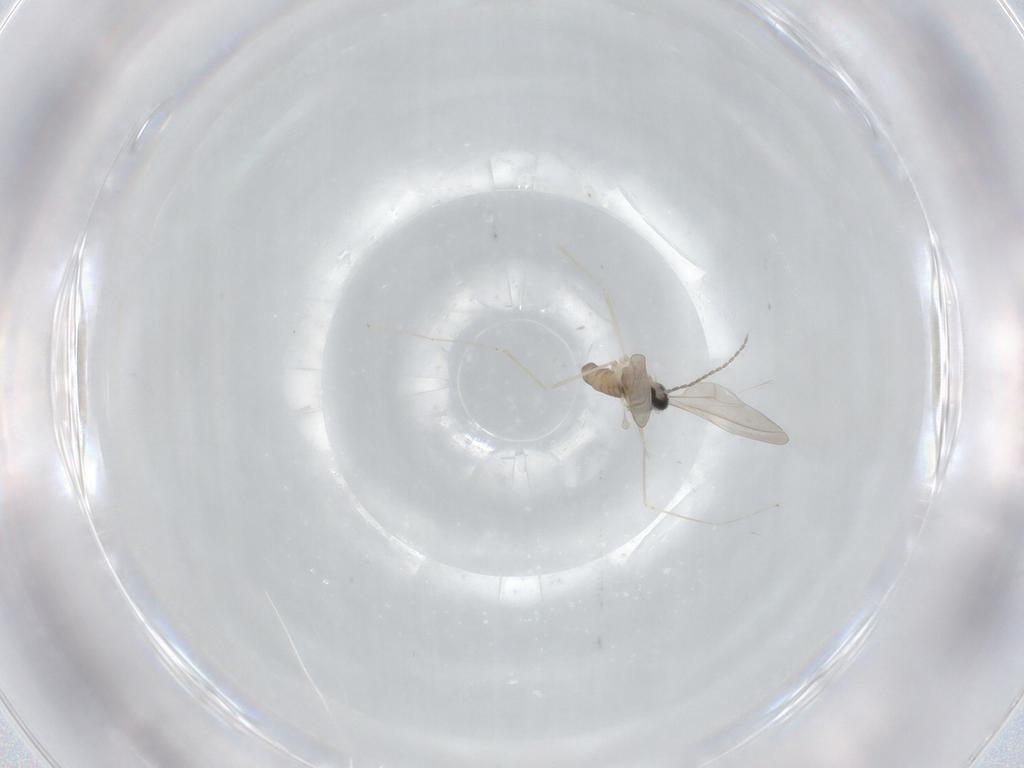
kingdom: Animalia
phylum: Arthropoda
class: Insecta
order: Diptera
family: Cecidomyiidae
